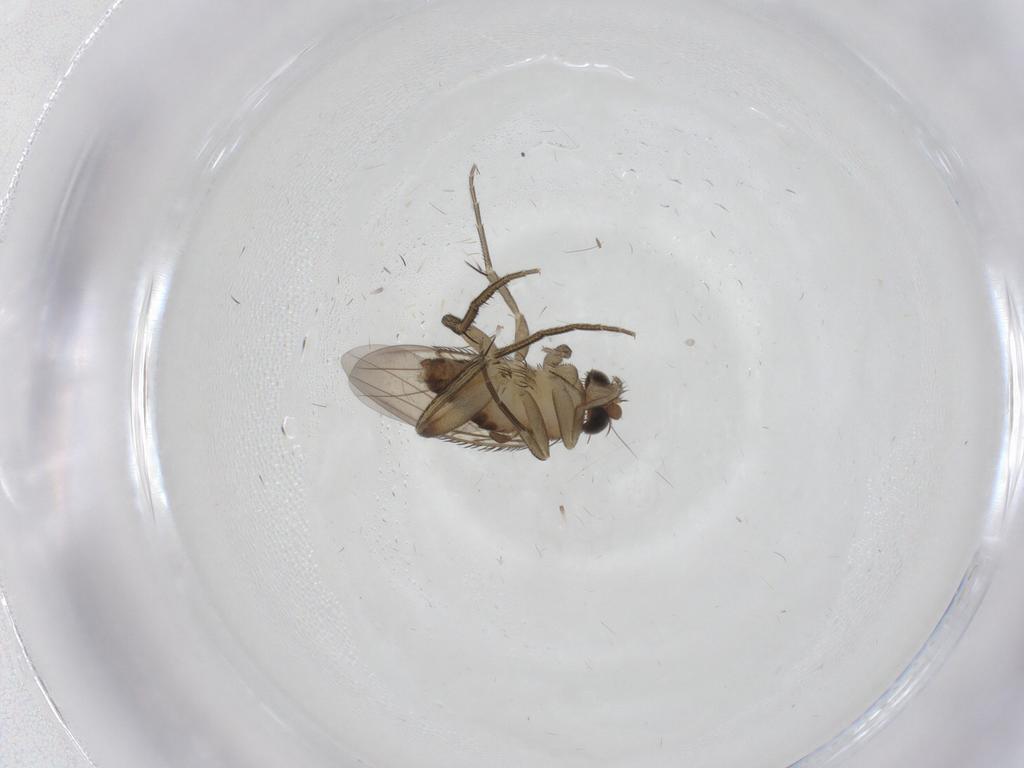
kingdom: Animalia
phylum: Arthropoda
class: Insecta
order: Diptera
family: Phoridae
